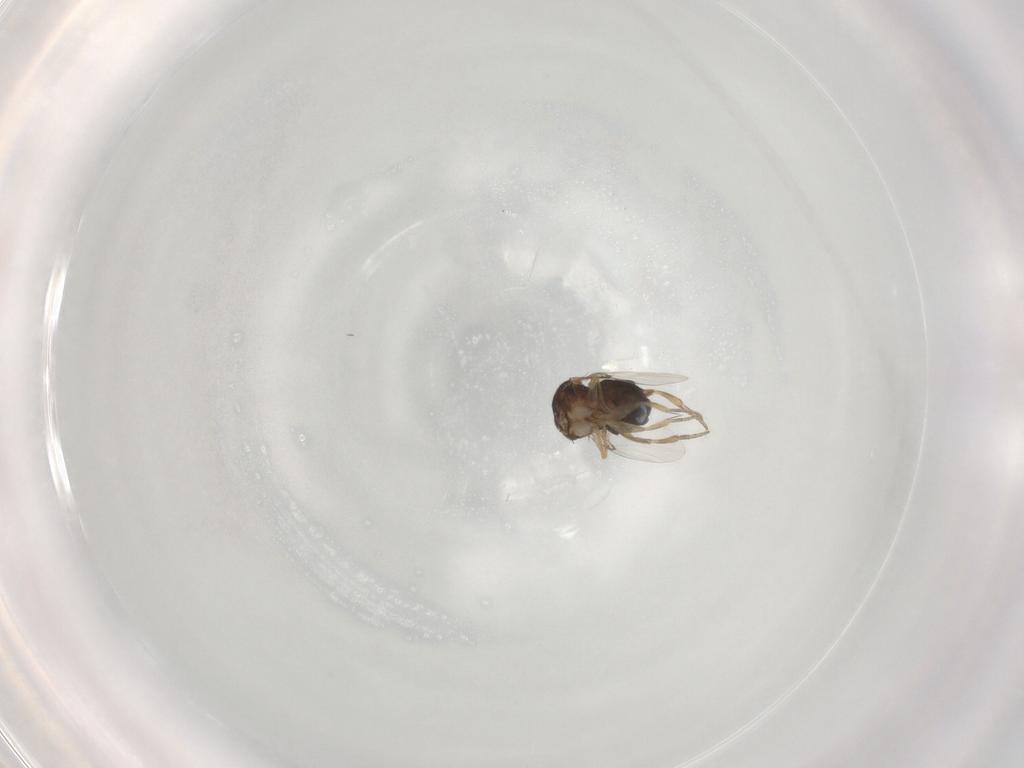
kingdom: Animalia
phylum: Arthropoda
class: Insecta
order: Diptera
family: Phoridae
